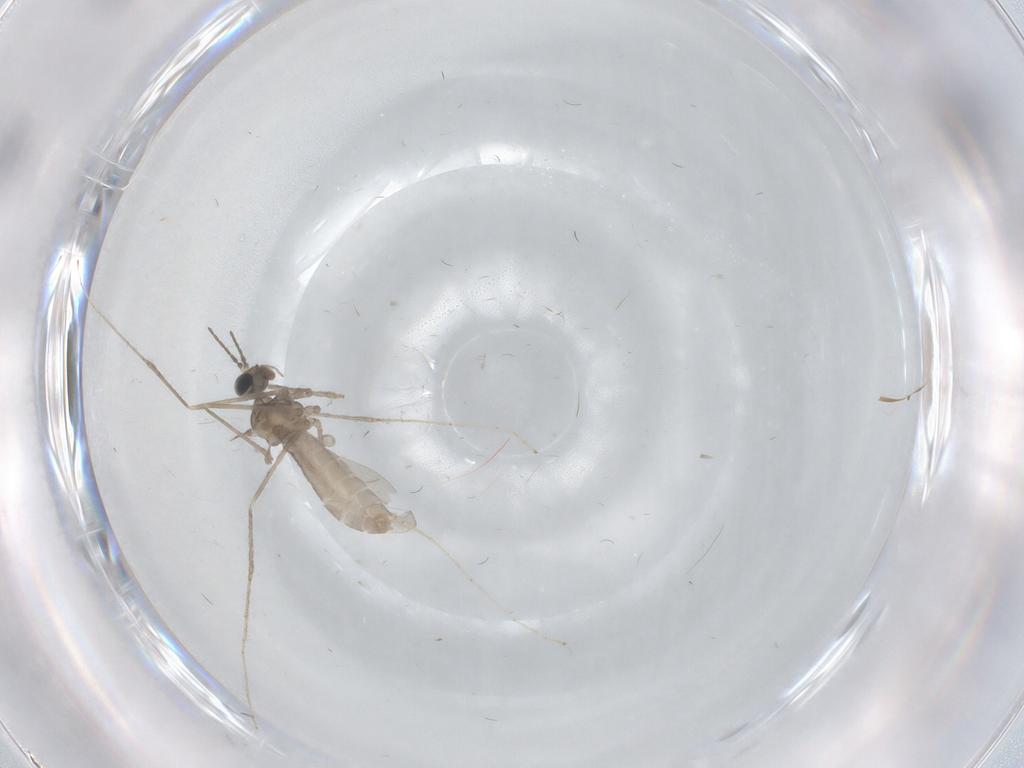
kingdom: Animalia
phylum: Arthropoda
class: Insecta
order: Diptera
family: Cecidomyiidae
